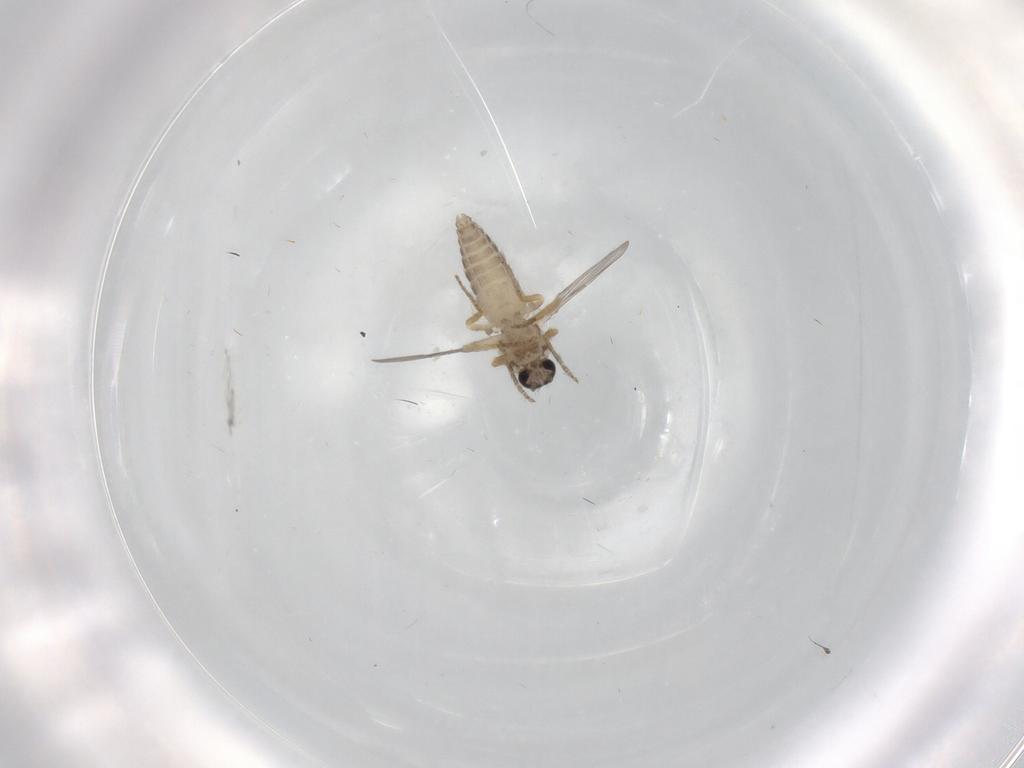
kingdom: Animalia
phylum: Arthropoda
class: Insecta
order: Diptera
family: Ceratopogonidae
